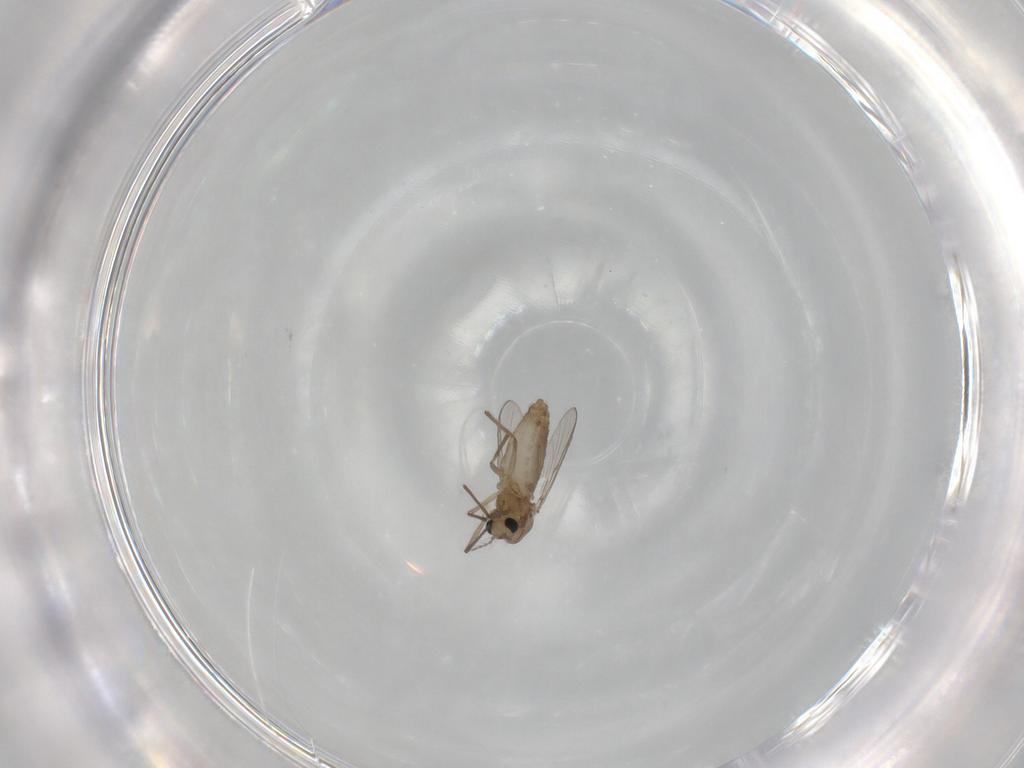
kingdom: Animalia
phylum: Arthropoda
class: Insecta
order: Diptera
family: Chironomidae
